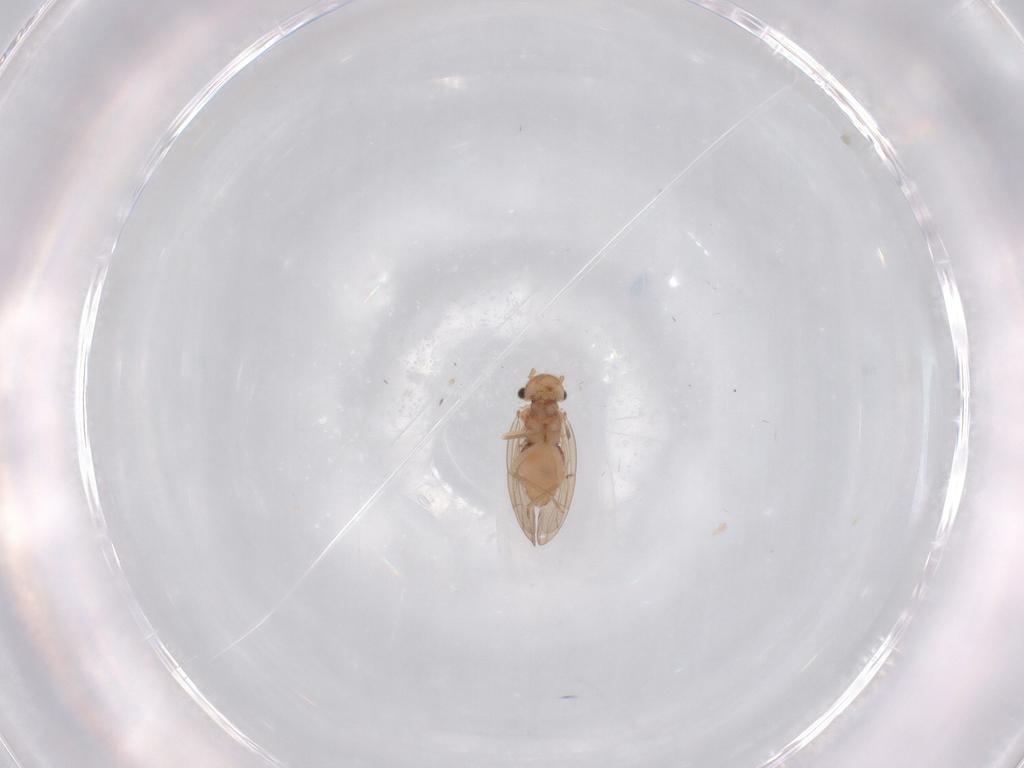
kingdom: Animalia
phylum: Arthropoda
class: Insecta
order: Psocodea
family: Ectopsocidae
